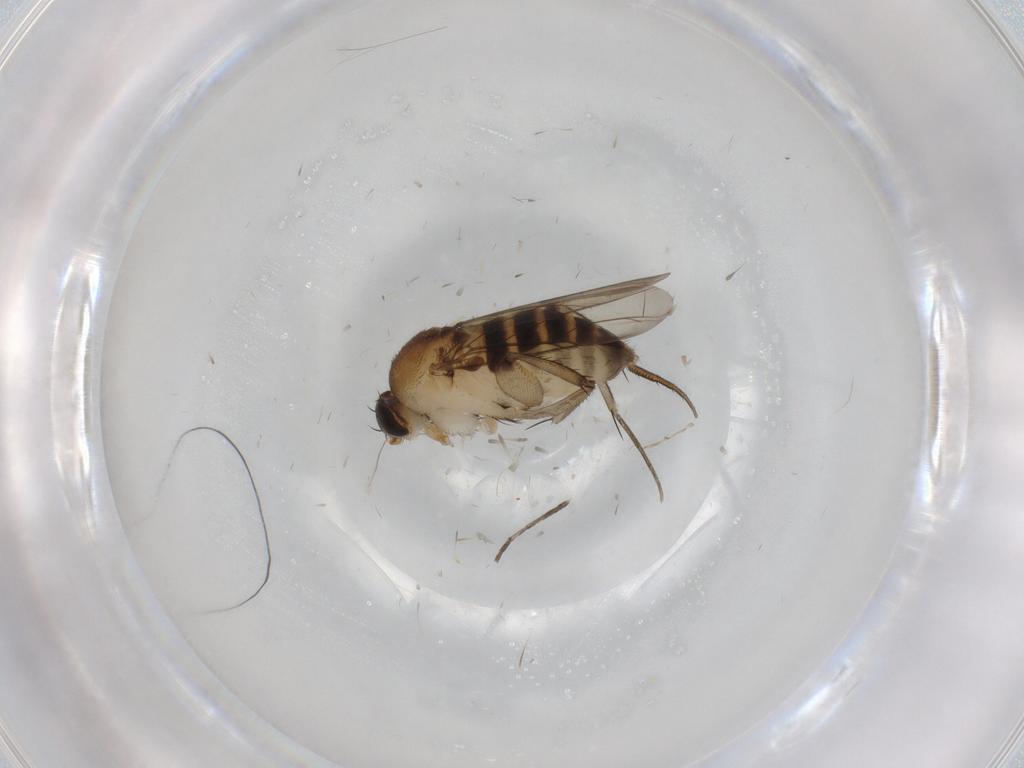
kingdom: Animalia
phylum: Arthropoda
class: Insecta
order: Diptera
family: Phoridae
